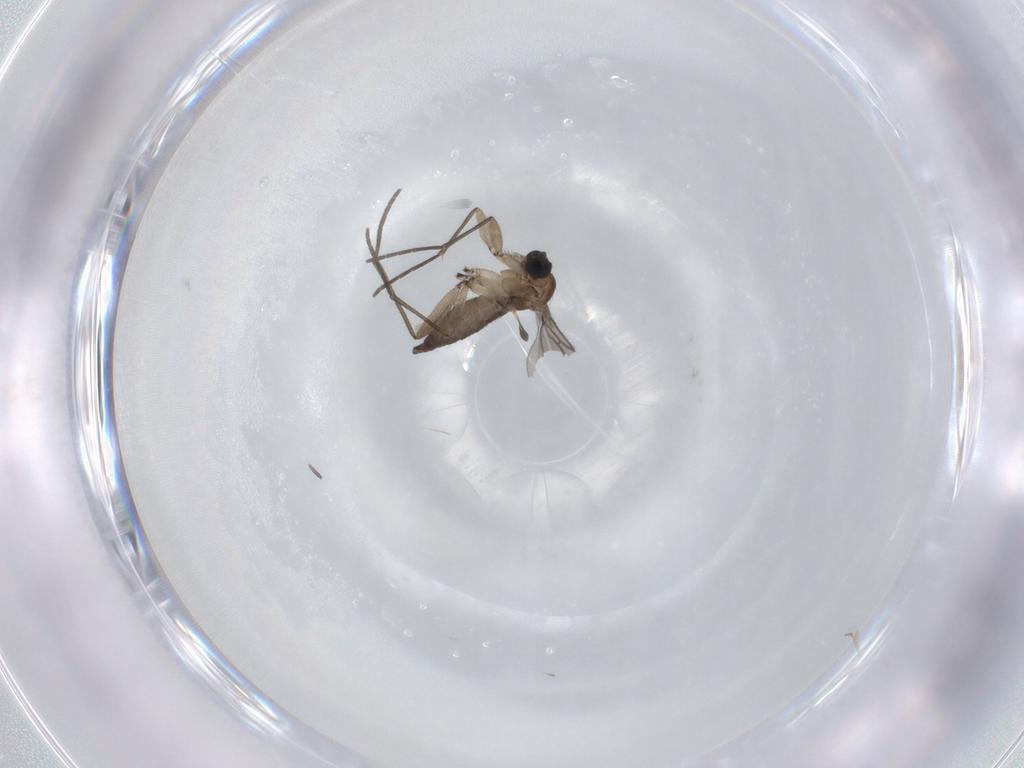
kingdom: Animalia
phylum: Arthropoda
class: Insecta
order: Diptera
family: Sciaridae
